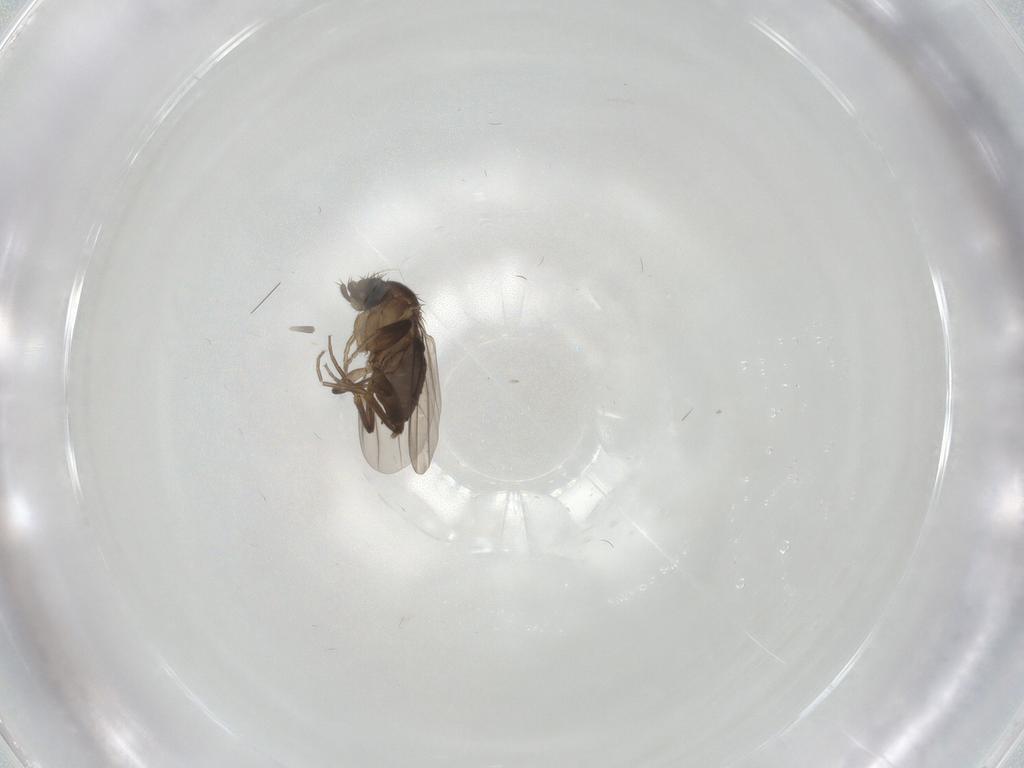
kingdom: Animalia
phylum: Arthropoda
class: Insecta
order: Diptera
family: Phoridae
